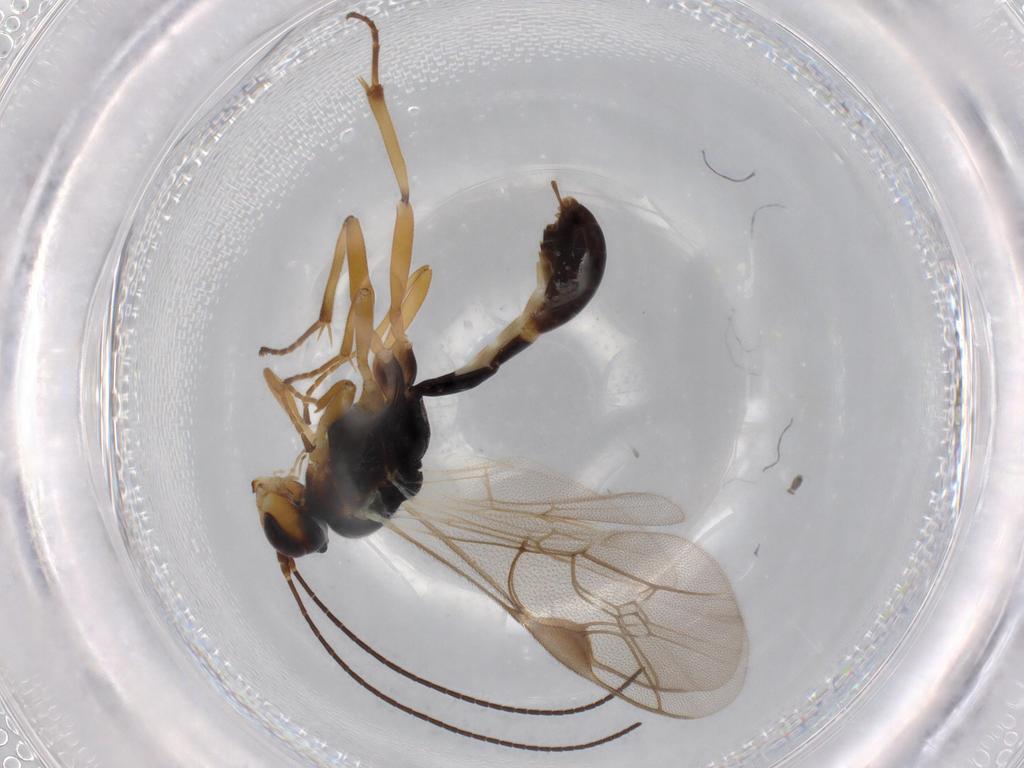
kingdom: Animalia
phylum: Arthropoda
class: Insecta
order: Hymenoptera
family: Ichneumonidae
